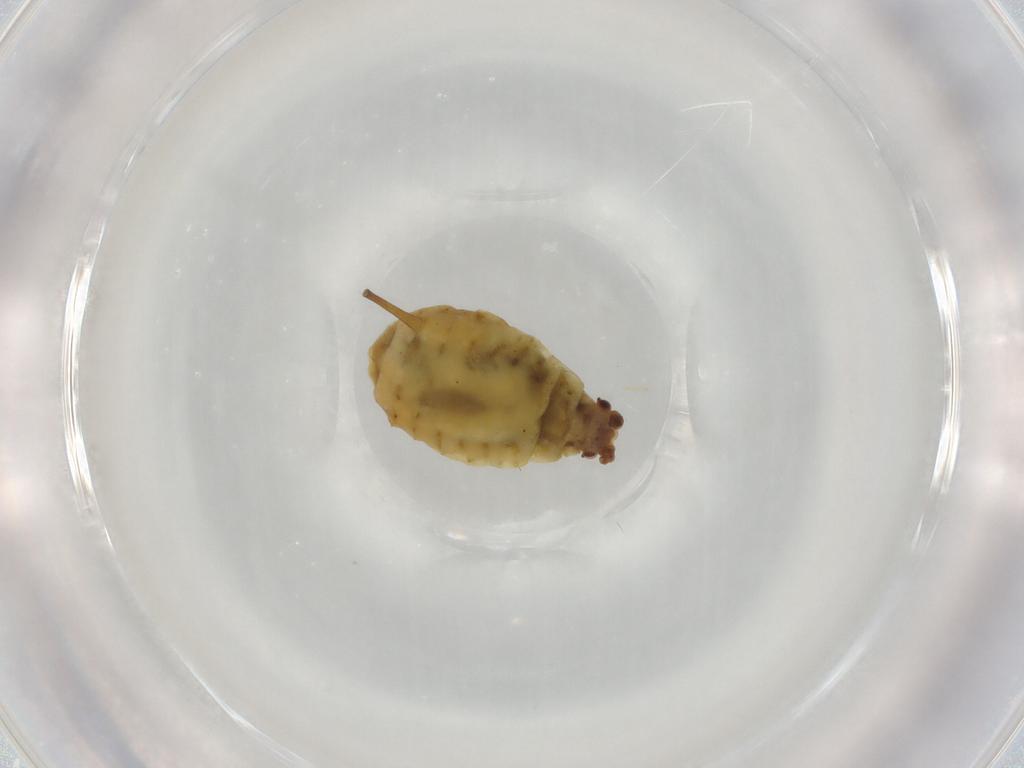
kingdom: Animalia
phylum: Arthropoda
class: Insecta
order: Hemiptera
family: Aphididae
